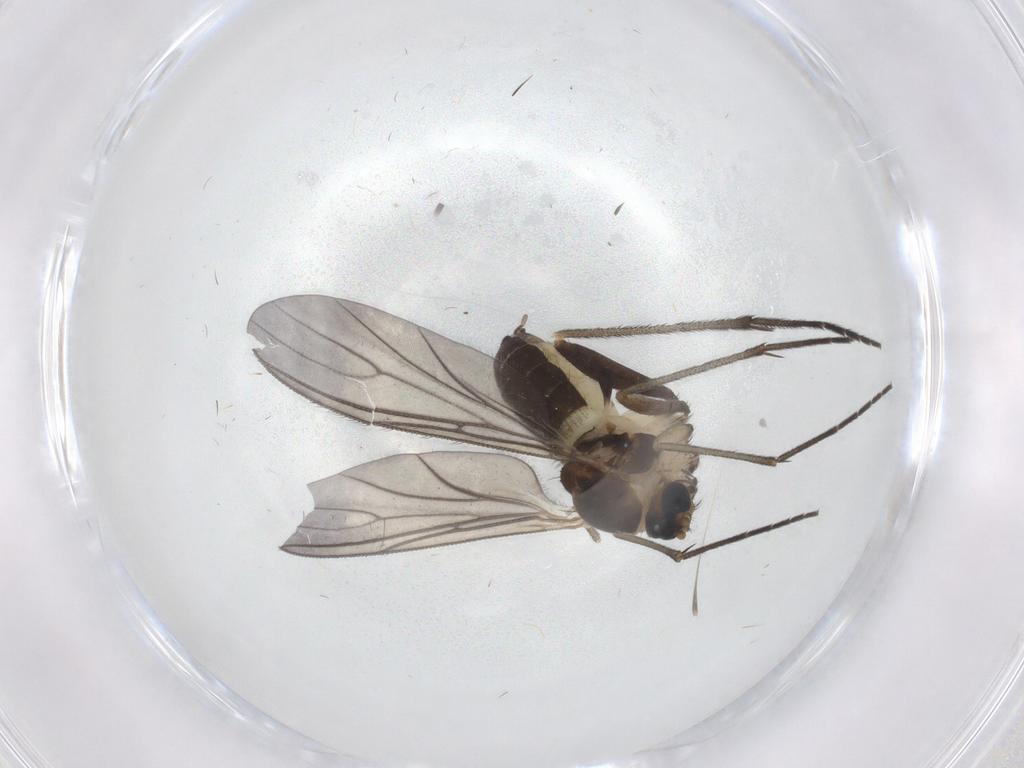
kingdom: Animalia
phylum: Arthropoda
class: Insecta
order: Diptera
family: Sciaridae
